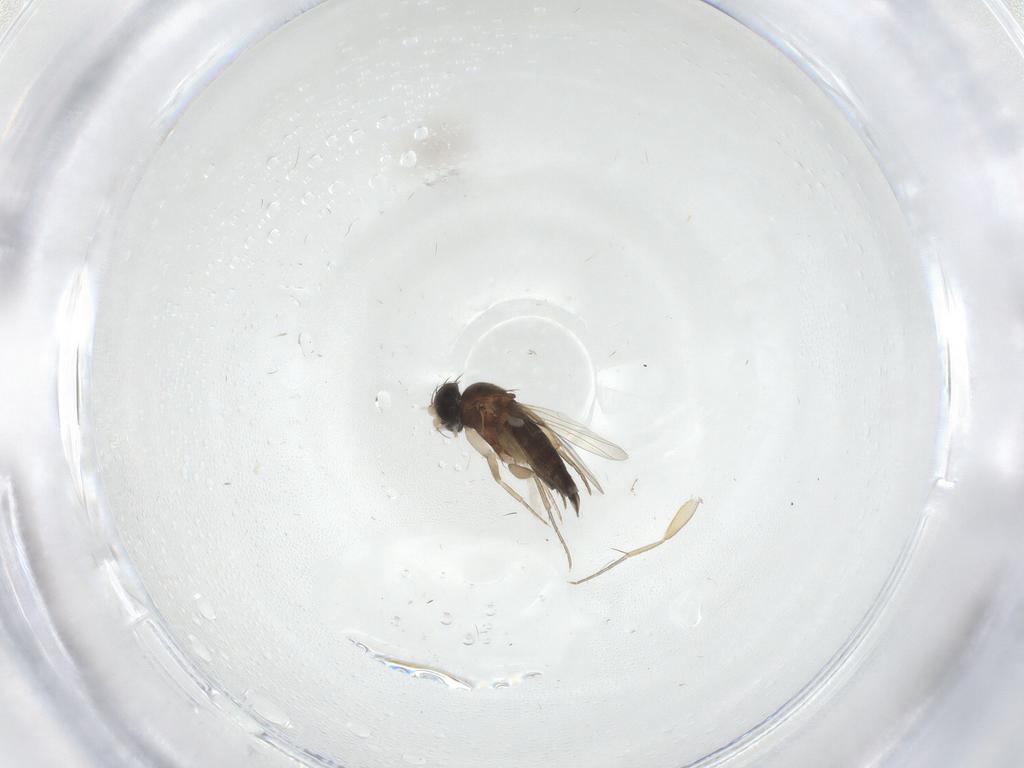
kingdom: Animalia
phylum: Arthropoda
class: Insecta
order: Diptera
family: Phoridae
